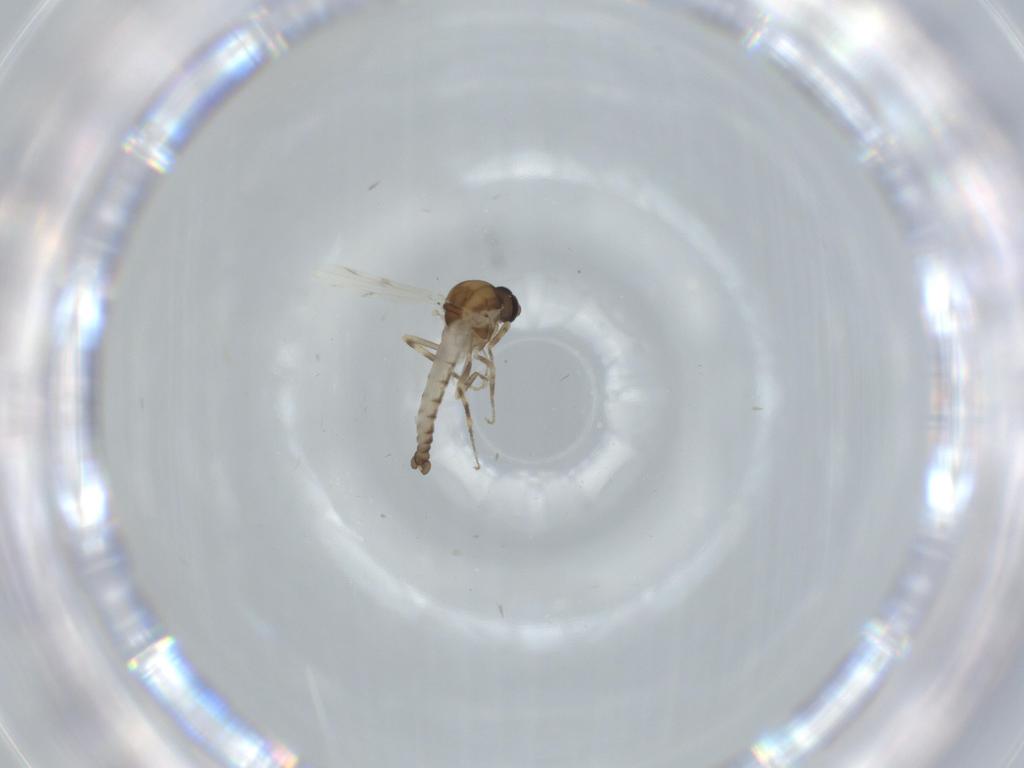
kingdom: Animalia
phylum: Arthropoda
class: Insecta
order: Diptera
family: Ceratopogonidae
